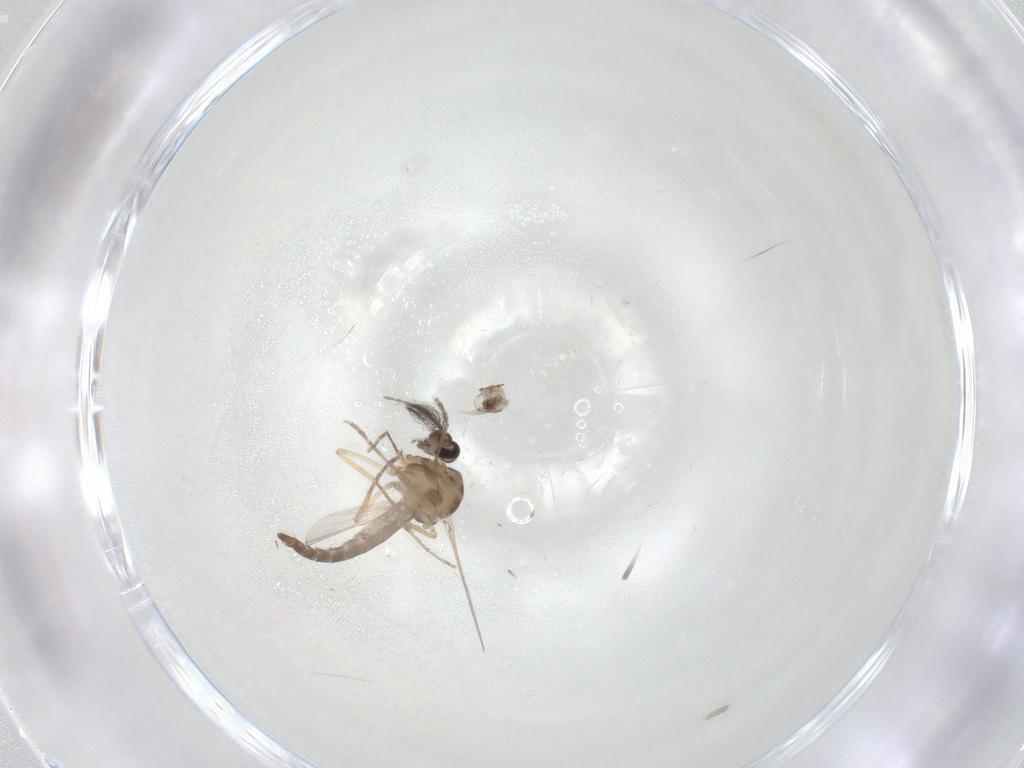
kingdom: Animalia
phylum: Arthropoda
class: Insecta
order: Diptera
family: Ceratopogonidae
